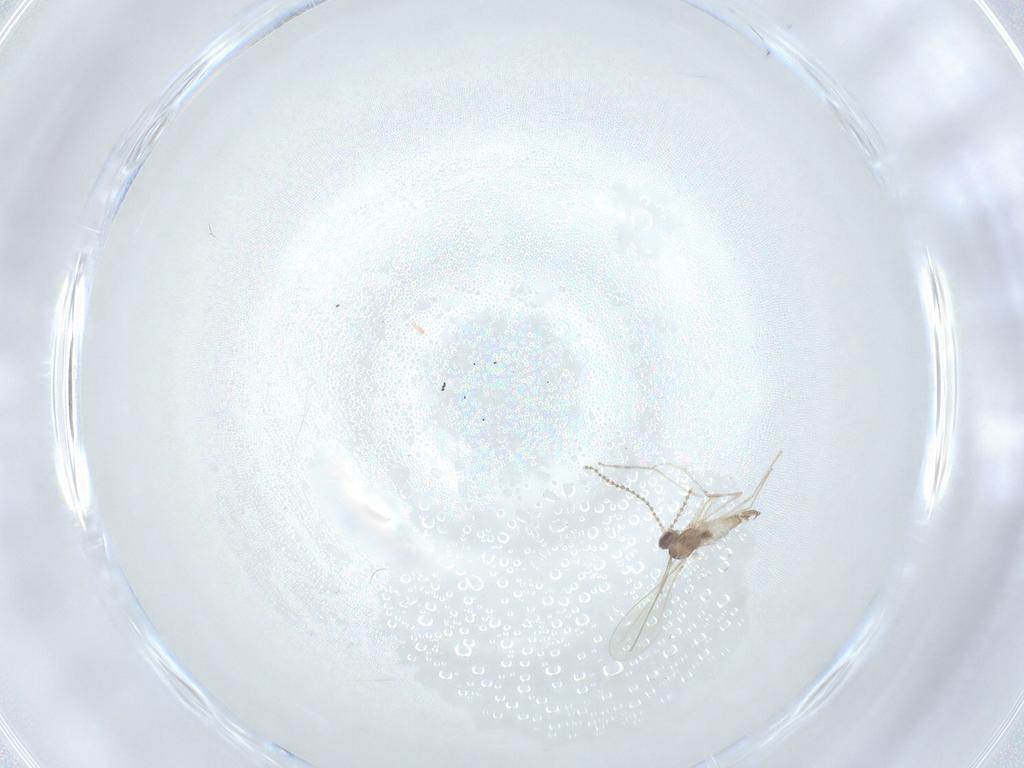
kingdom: Animalia
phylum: Arthropoda
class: Insecta
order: Diptera
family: Cecidomyiidae
